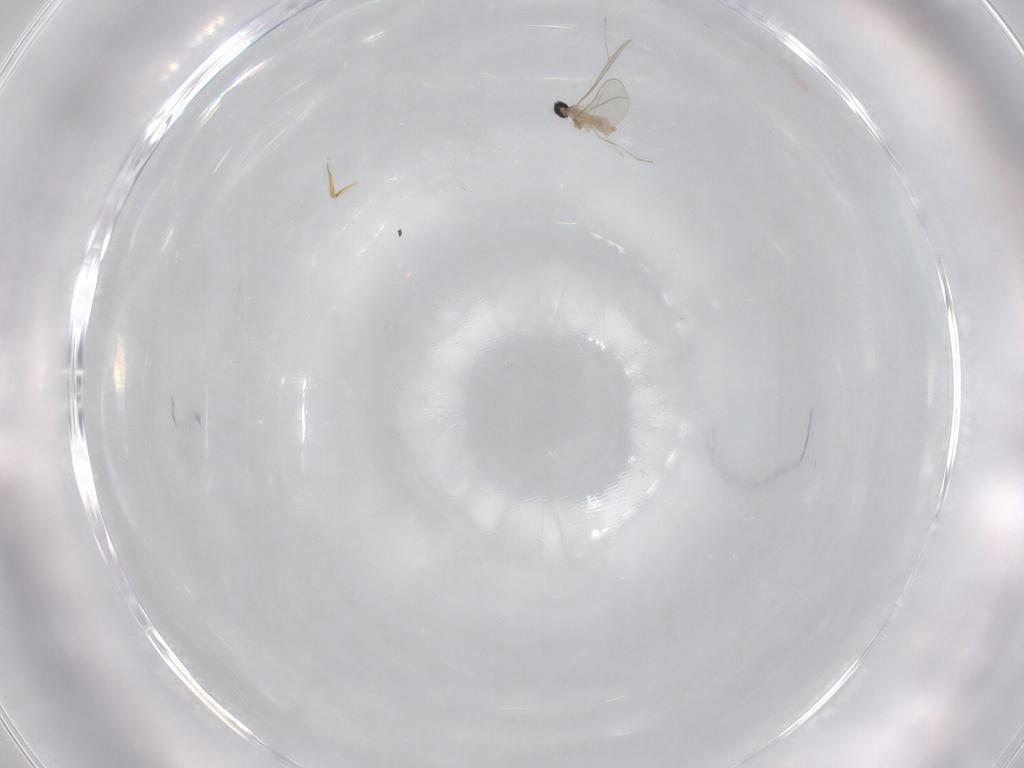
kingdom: Animalia
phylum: Arthropoda
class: Insecta
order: Diptera
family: Cecidomyiidae
